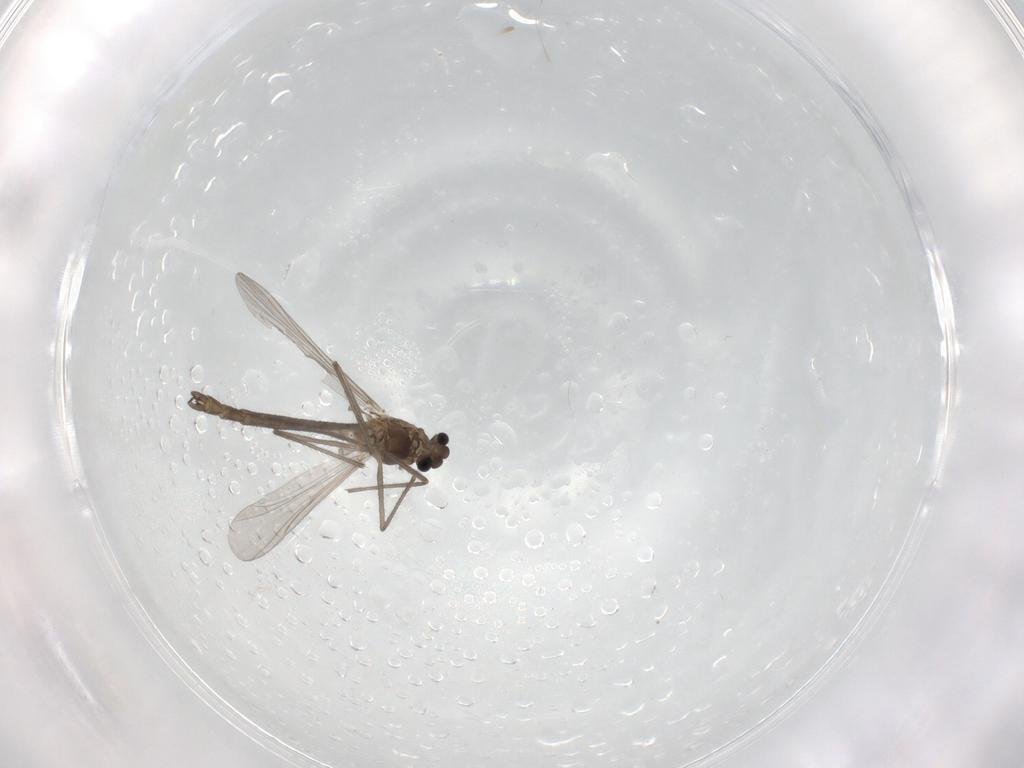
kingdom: Animalia
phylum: Arthropoda
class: Insecta
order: Diptera
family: Chironomidae
